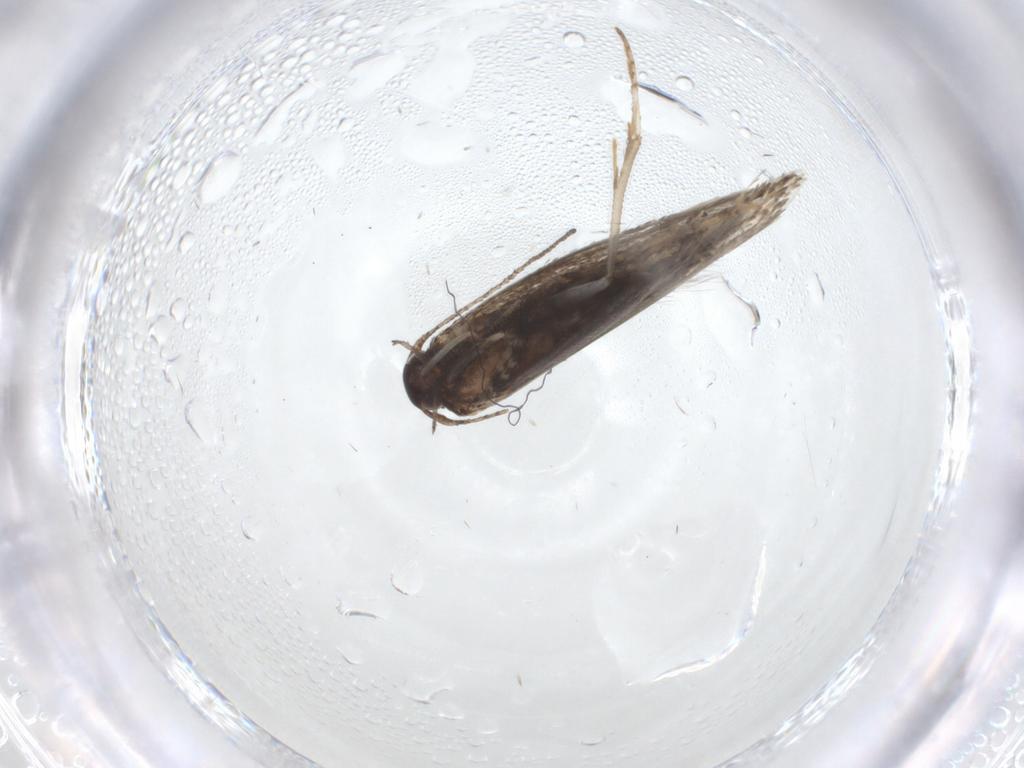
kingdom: Animalia
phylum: Arthropoda
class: Insecta
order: Lepidoptera
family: Momphidae
